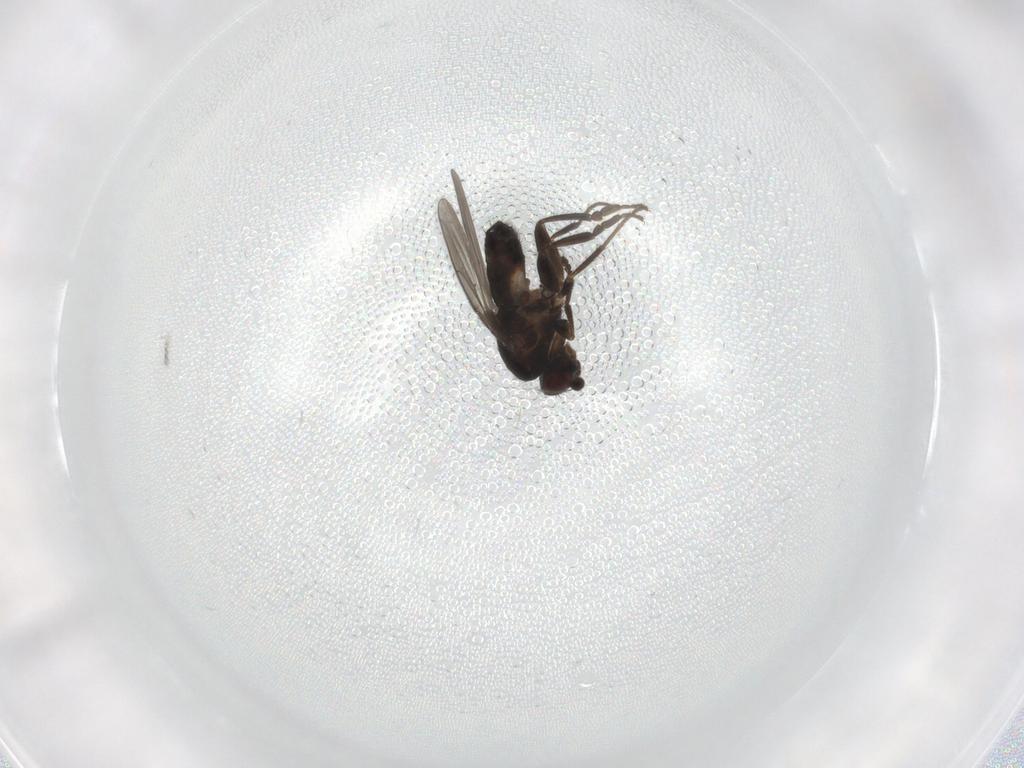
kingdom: Animalia
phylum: Arthropoda
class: Insecta
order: Diptera
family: Sphaeroceridae
